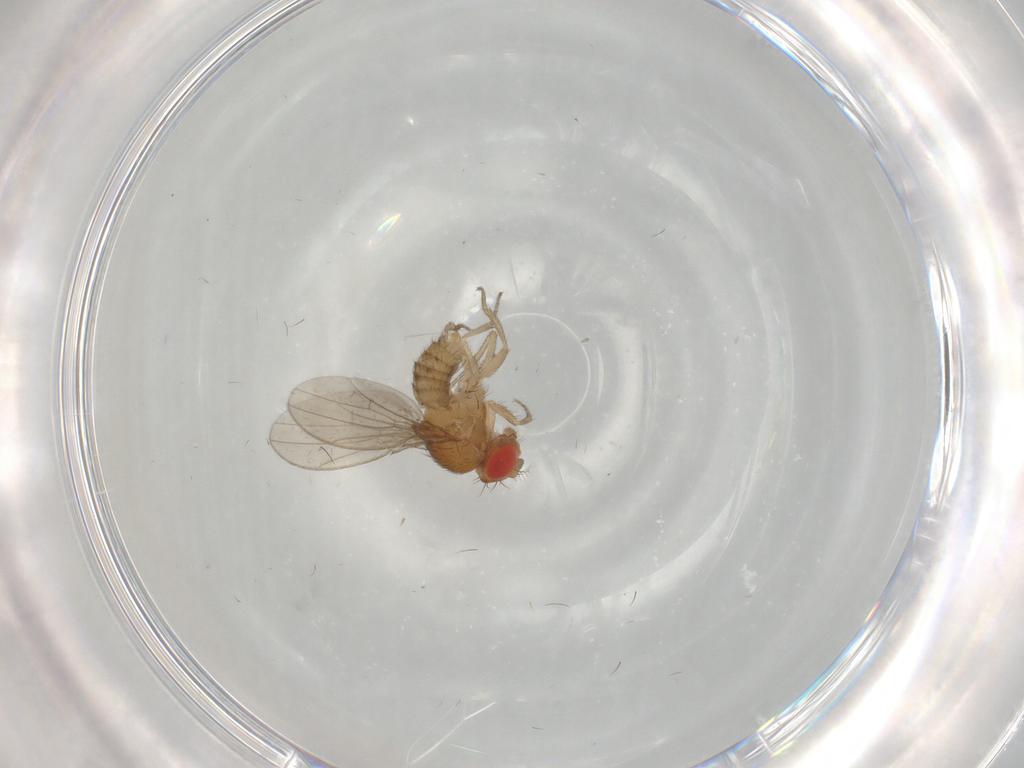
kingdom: Animalia
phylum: Arthropoda
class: Insecta
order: Diptera
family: Drosophilidae
